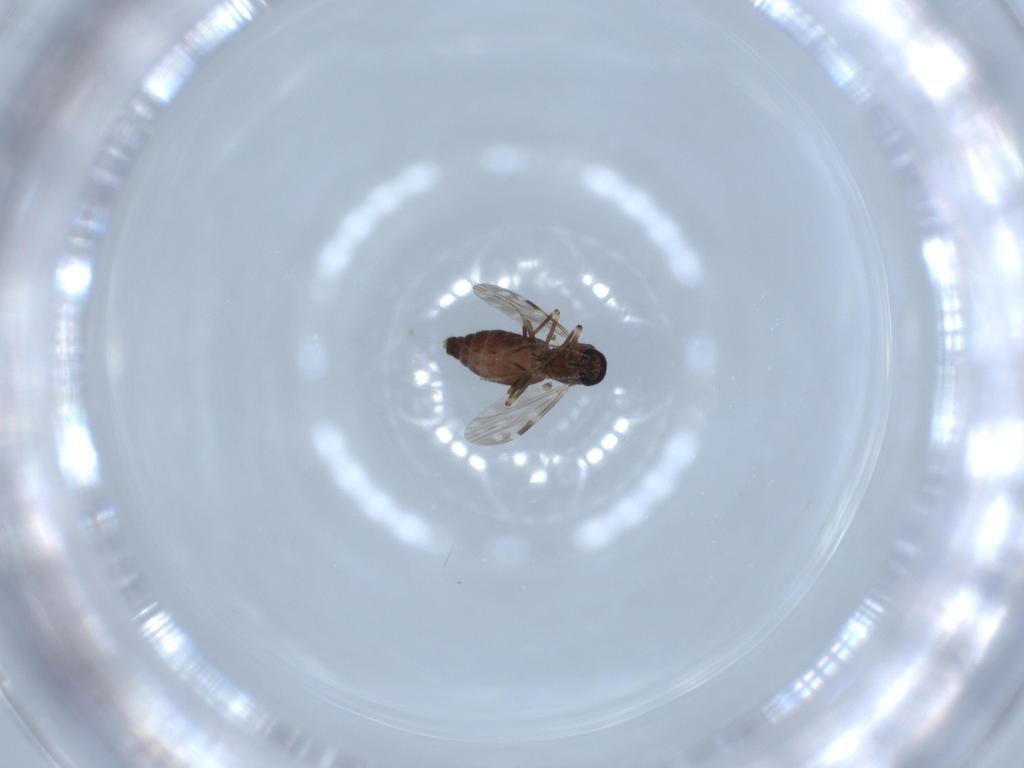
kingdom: Animalia
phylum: Arthropoda
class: Insecta
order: Diptera
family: Ceratopogonidae
